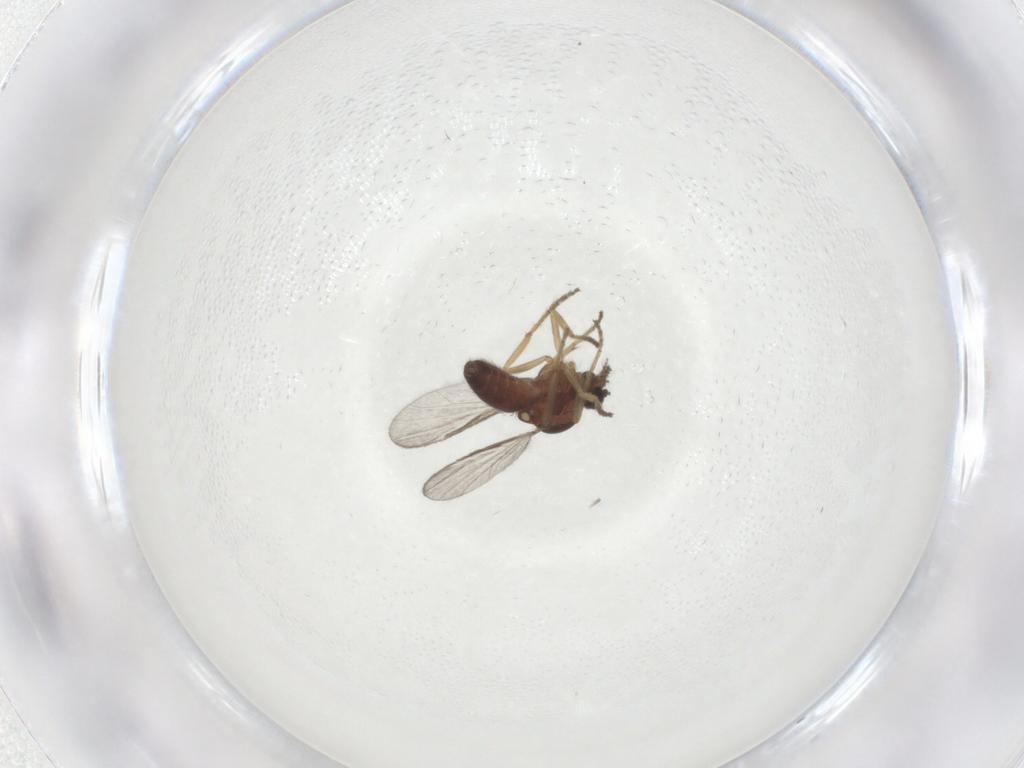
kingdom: Animalia
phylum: Arthropoda
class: Insecta
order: Diptera
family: Ceratopogonidae
